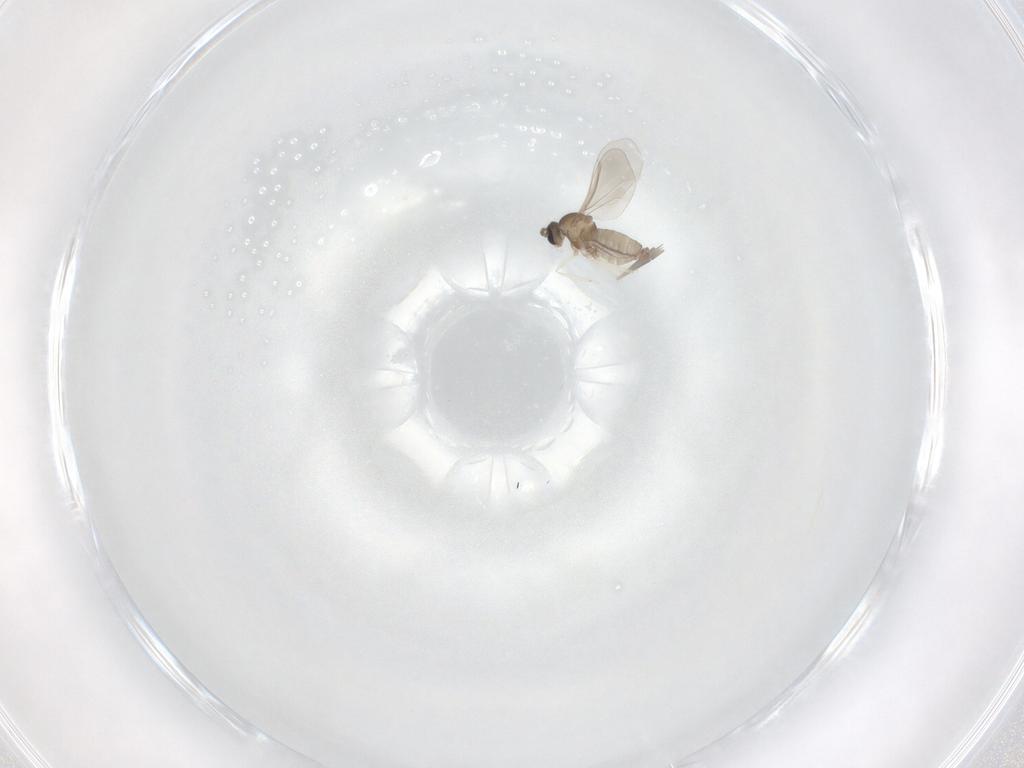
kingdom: Animalia
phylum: Arthropoda
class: Insecta
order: Diptera
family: Cecidomyiidae
